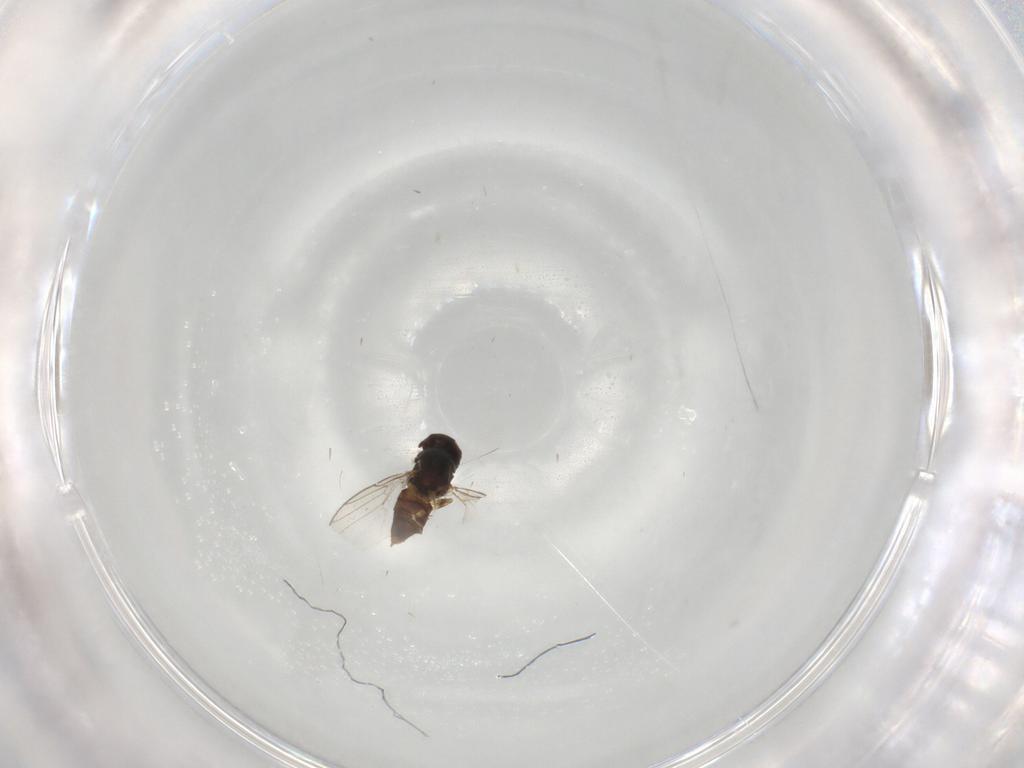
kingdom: Animalia
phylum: Arthropoda
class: Insecta
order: Diptera
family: Chloropidae
